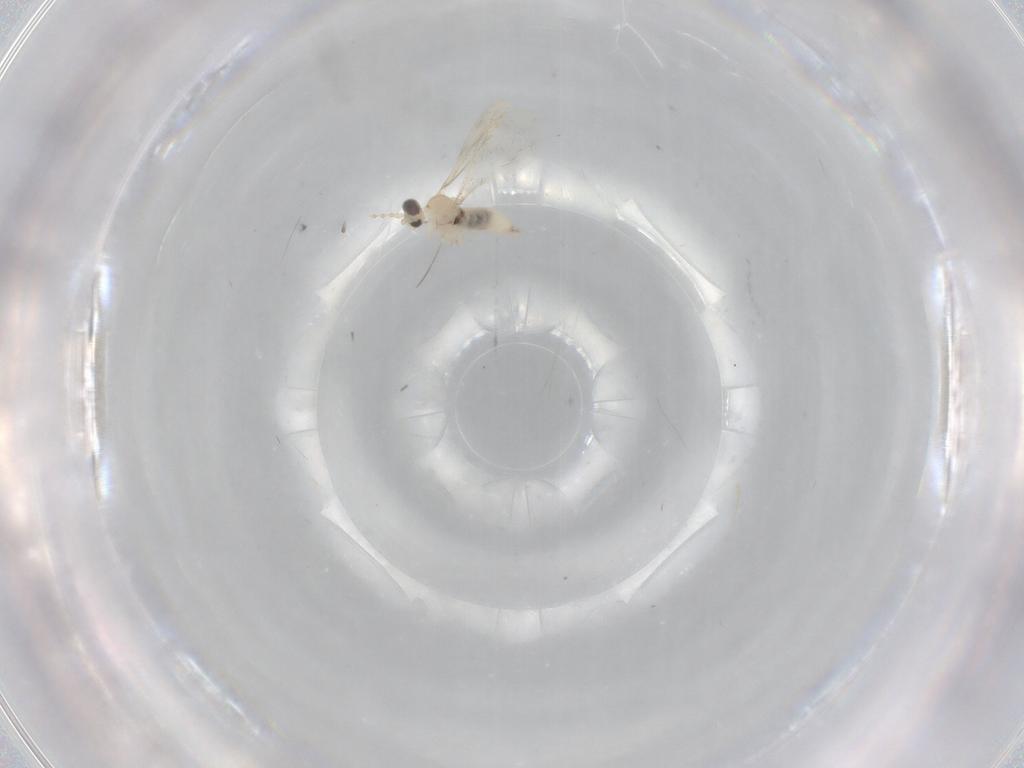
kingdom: Animalia
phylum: Arthropoda
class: Insecta
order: Diptera
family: Cecidomyiidae
